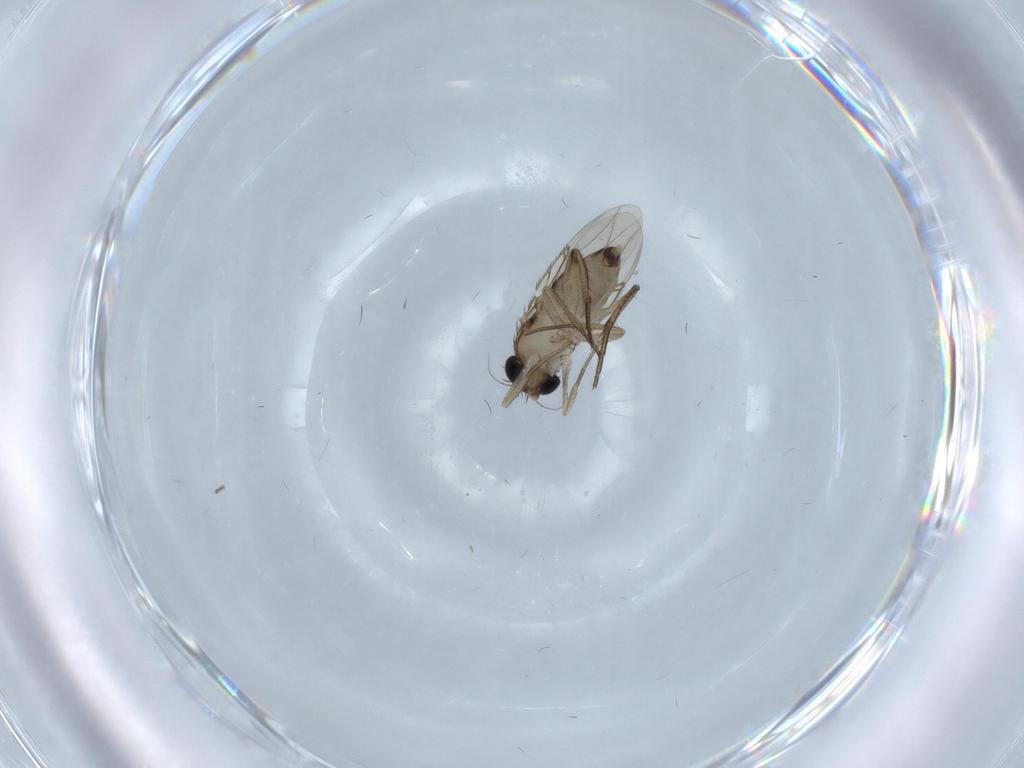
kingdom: Animalia
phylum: Arthropoda
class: Insecta
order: Diptera
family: Phoridae
